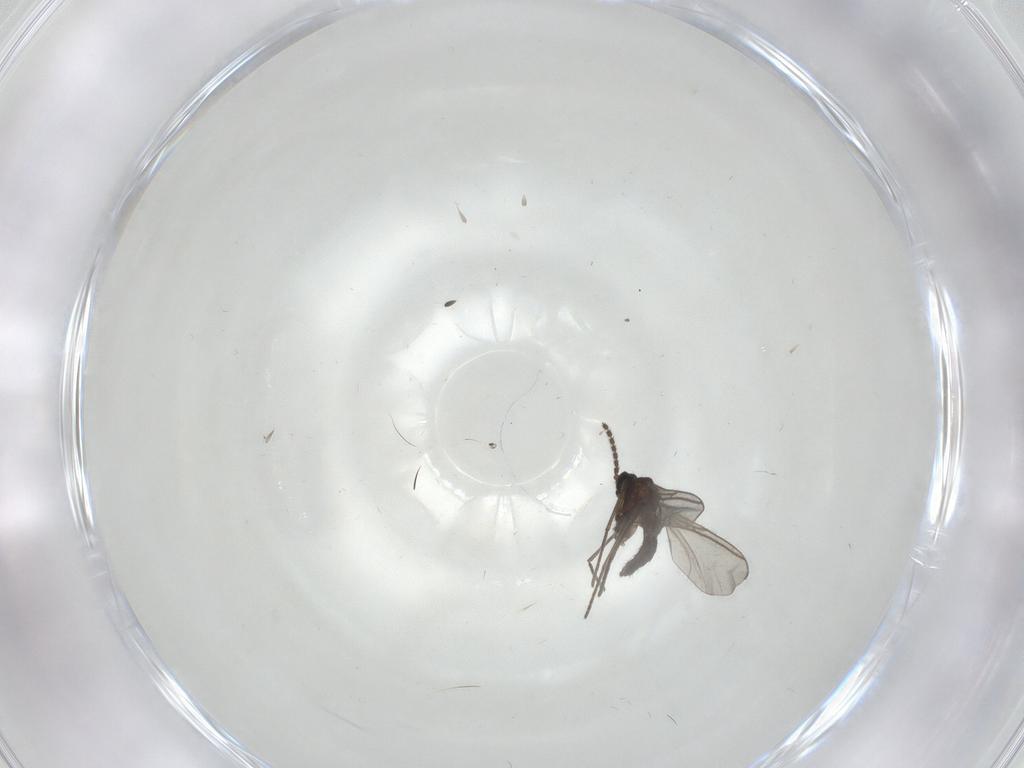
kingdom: Animalia
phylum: Arthropoda
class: Insecta
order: Diptera
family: Sciaridae
